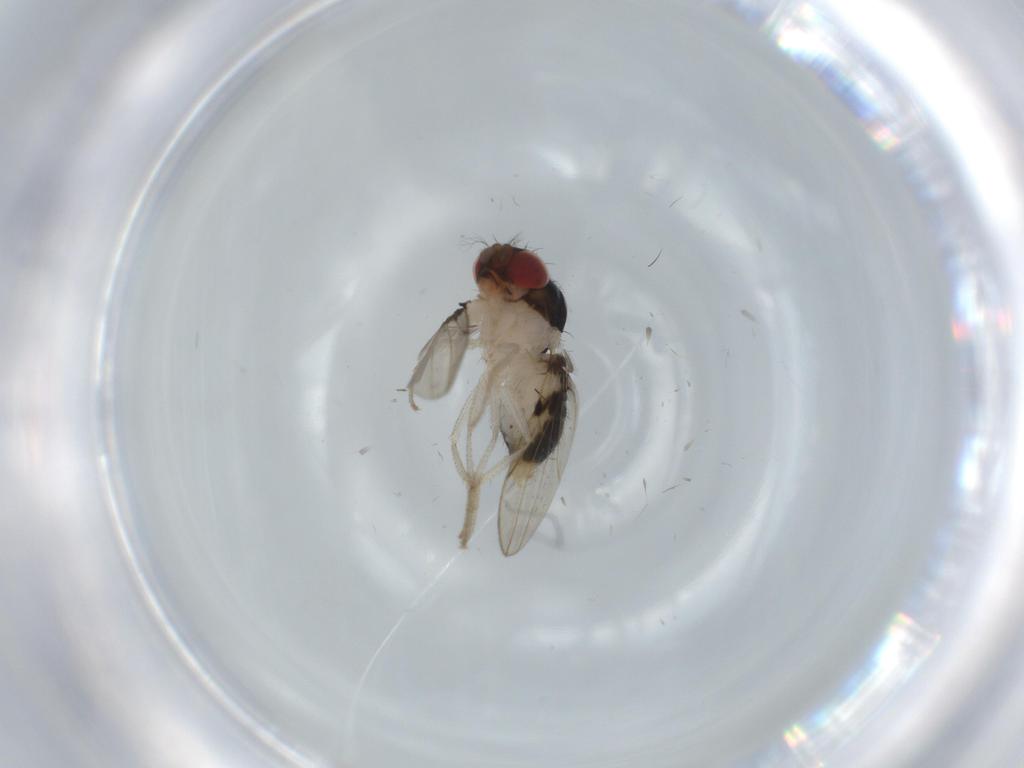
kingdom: Animalia
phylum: Arthropoda
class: Insecta
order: Diptera
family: Drosophilidae
